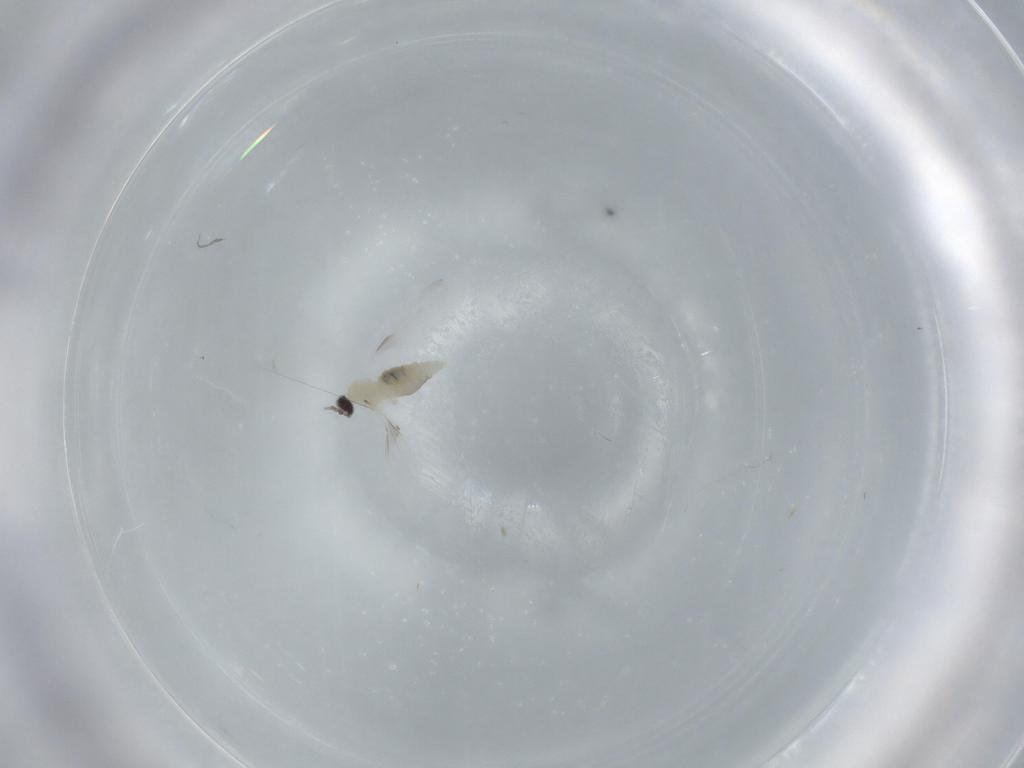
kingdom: Animalia
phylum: Arthropoda
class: Insecta
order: Diptera
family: Cecidomyiidae
